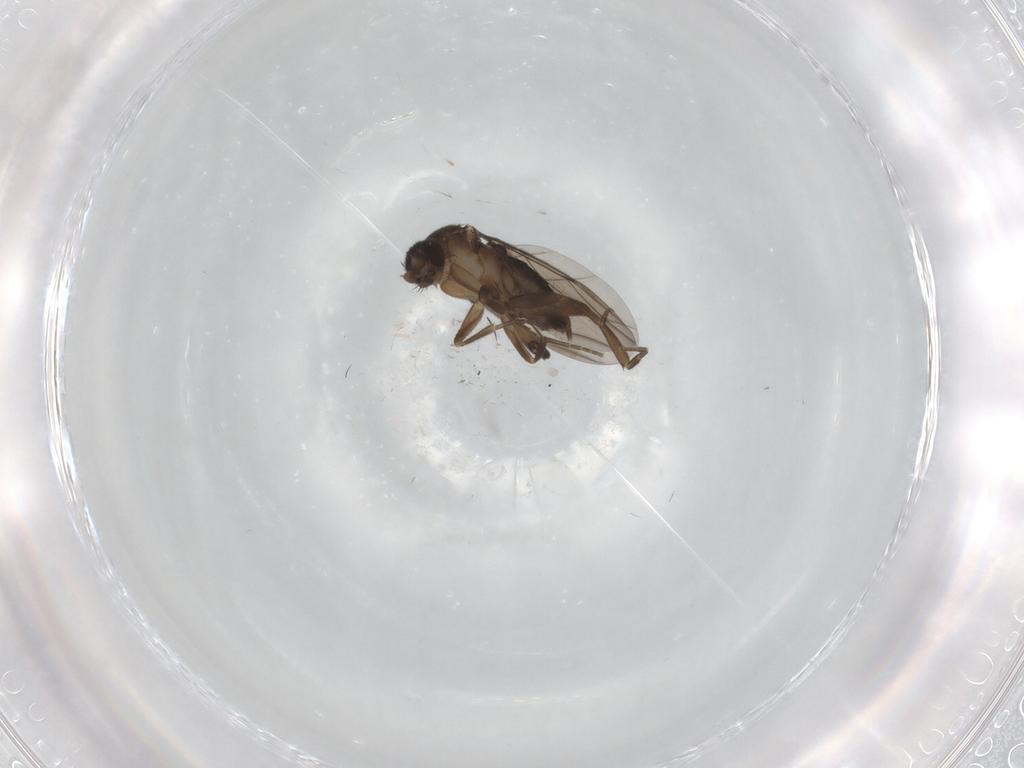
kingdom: Animalia
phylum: Arthropoda
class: Insecta
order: Diptera
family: Phoridae
